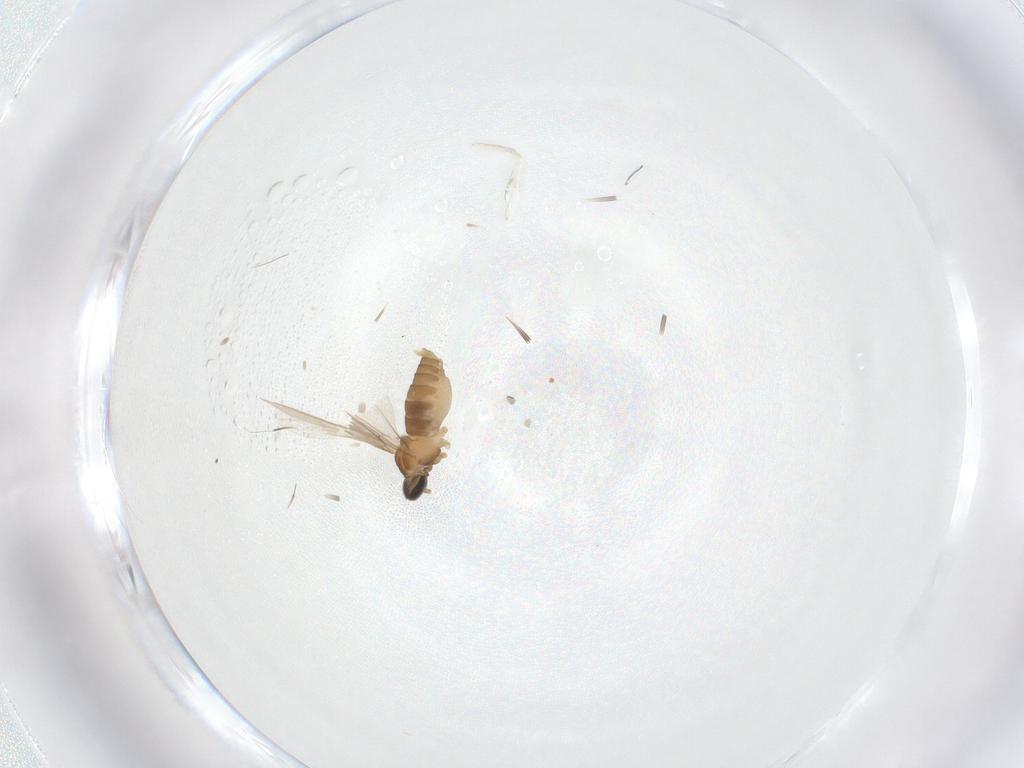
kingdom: Animalia
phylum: Arthropoda
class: Insecta
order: Diptera
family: Cecidomyiidae
